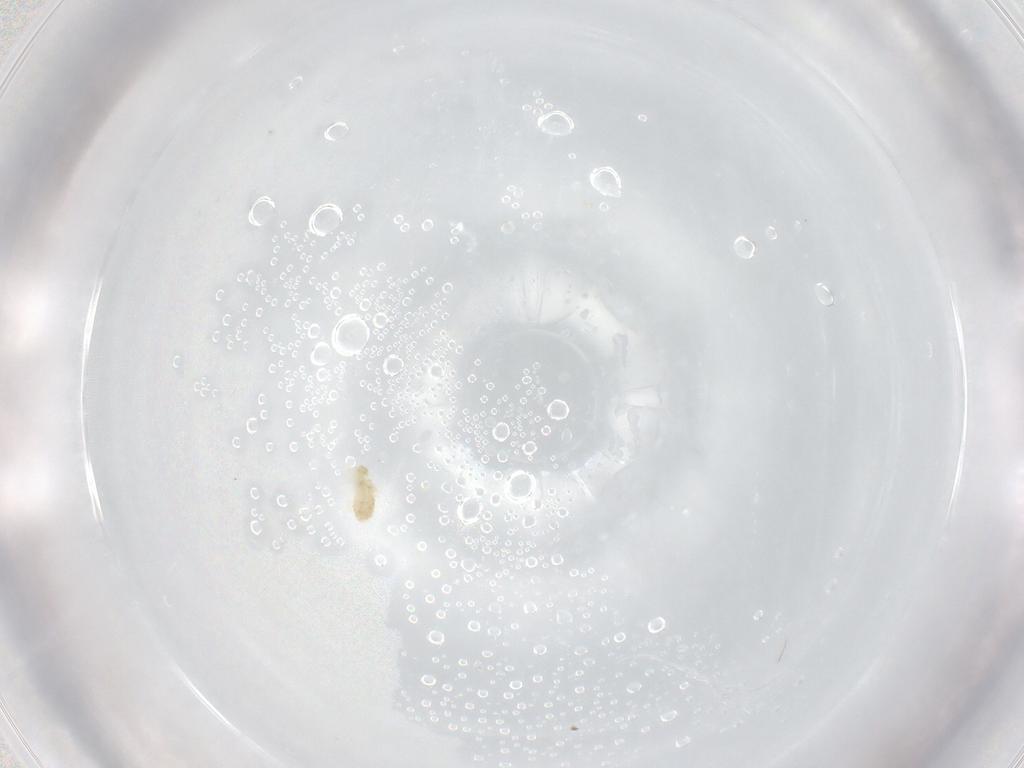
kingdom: Animalia
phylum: Arthropoda
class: Arachnida
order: Trombidiformes
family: Eupodidae
